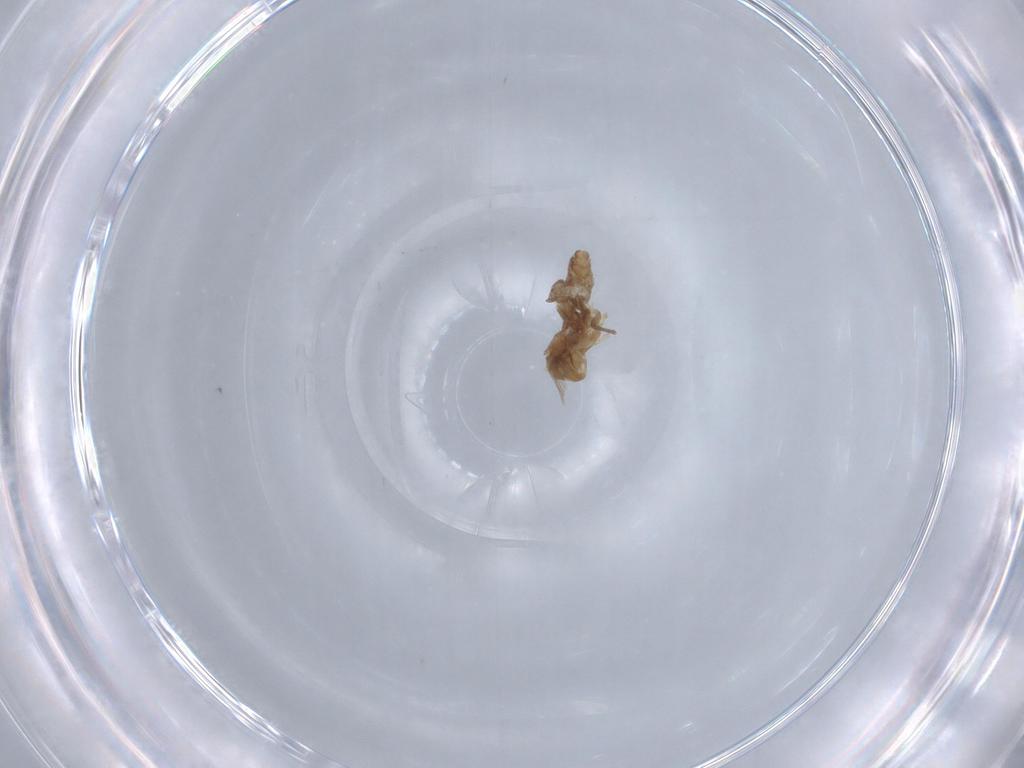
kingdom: Animalia
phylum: Arthropoda
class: Insecta
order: Diptera
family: Chironomidae
